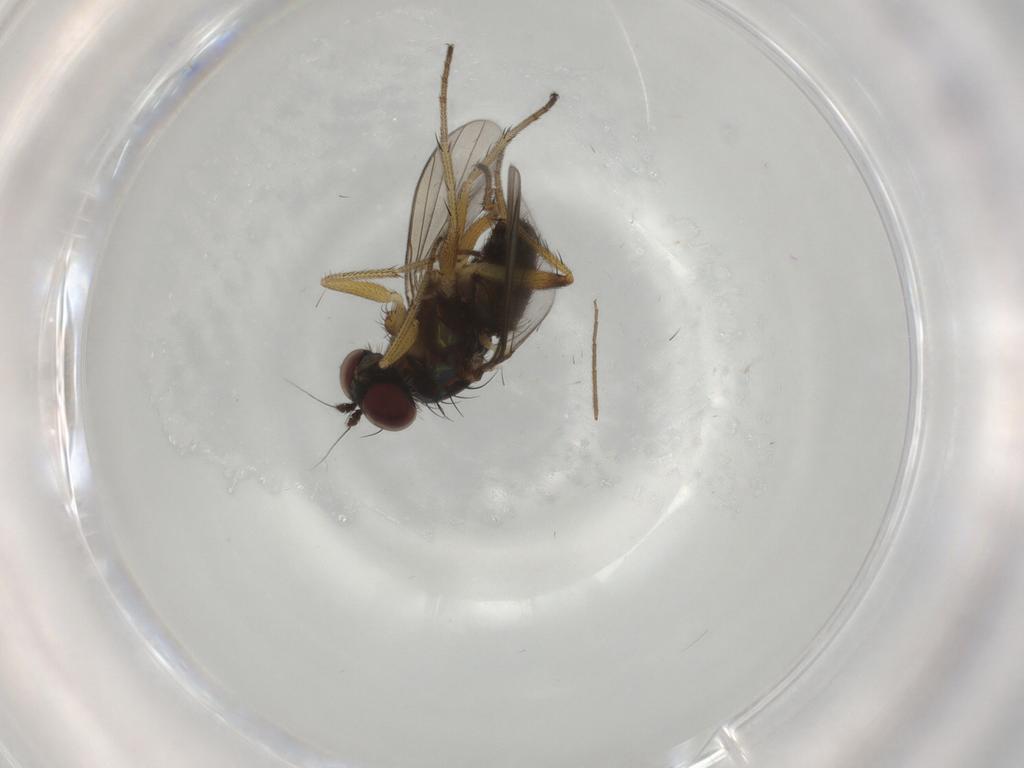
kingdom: Animalia
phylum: Arthropoda
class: Insecta
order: Diptera
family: Dolichopodidae
